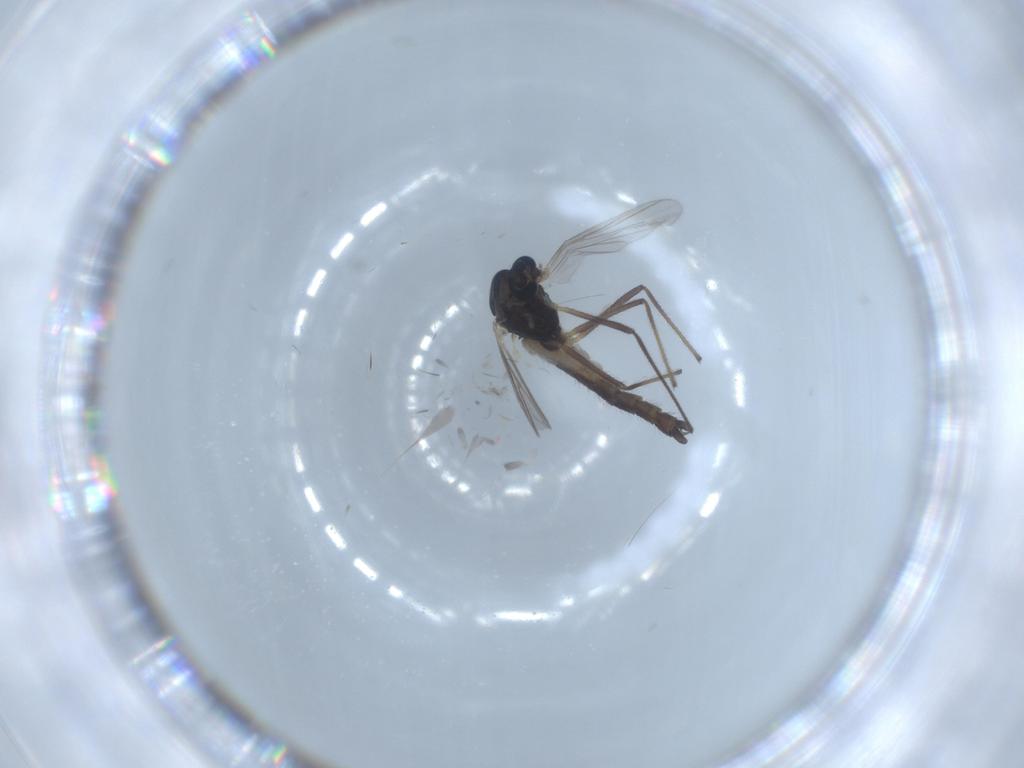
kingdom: Animalia
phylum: Arthropoda
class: Insecta
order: Diptera
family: Chironomidae
